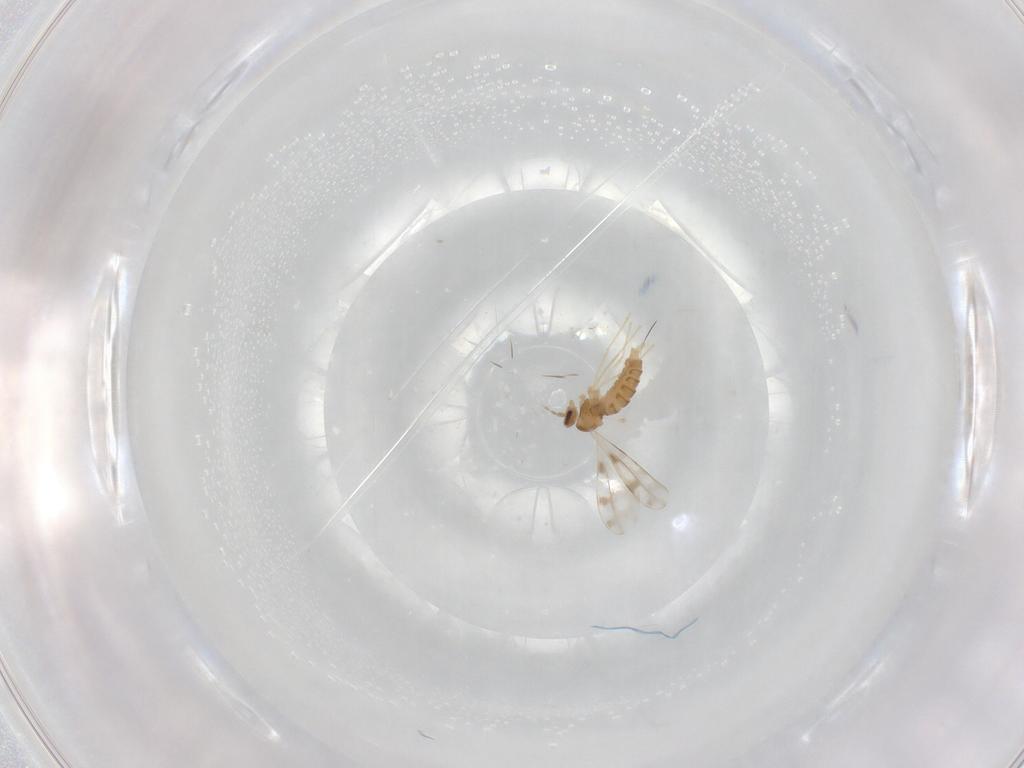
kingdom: Animalia
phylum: Arthropoda
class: Insecta
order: Diptera
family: Cecidomyiidae
